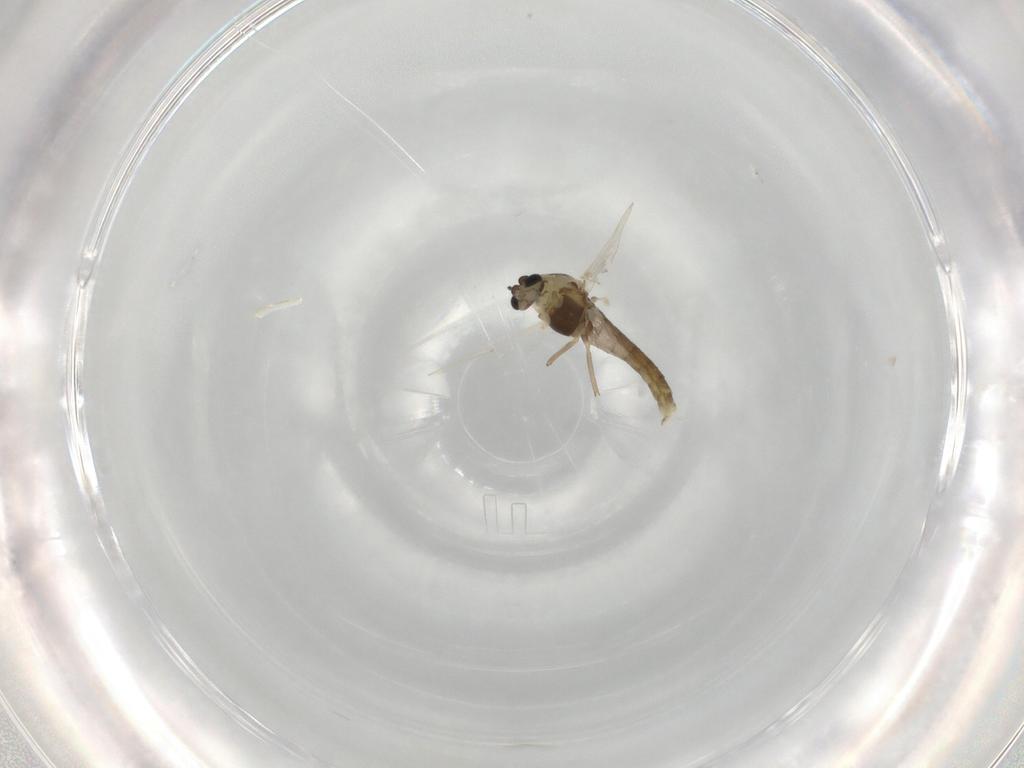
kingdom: Animalia
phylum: Arthropoda
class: Insecta
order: Diptera
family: Chironomidae
